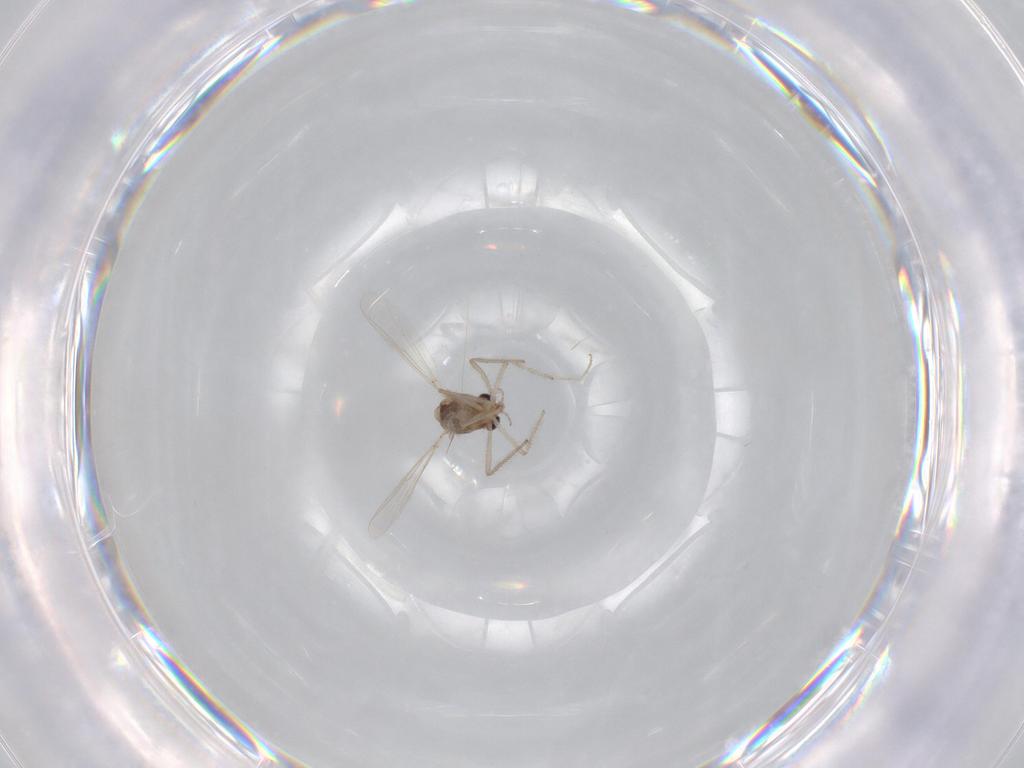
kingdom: Animalia
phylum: Arthropoda
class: Insecta
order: Diptera
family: Chironomidae
